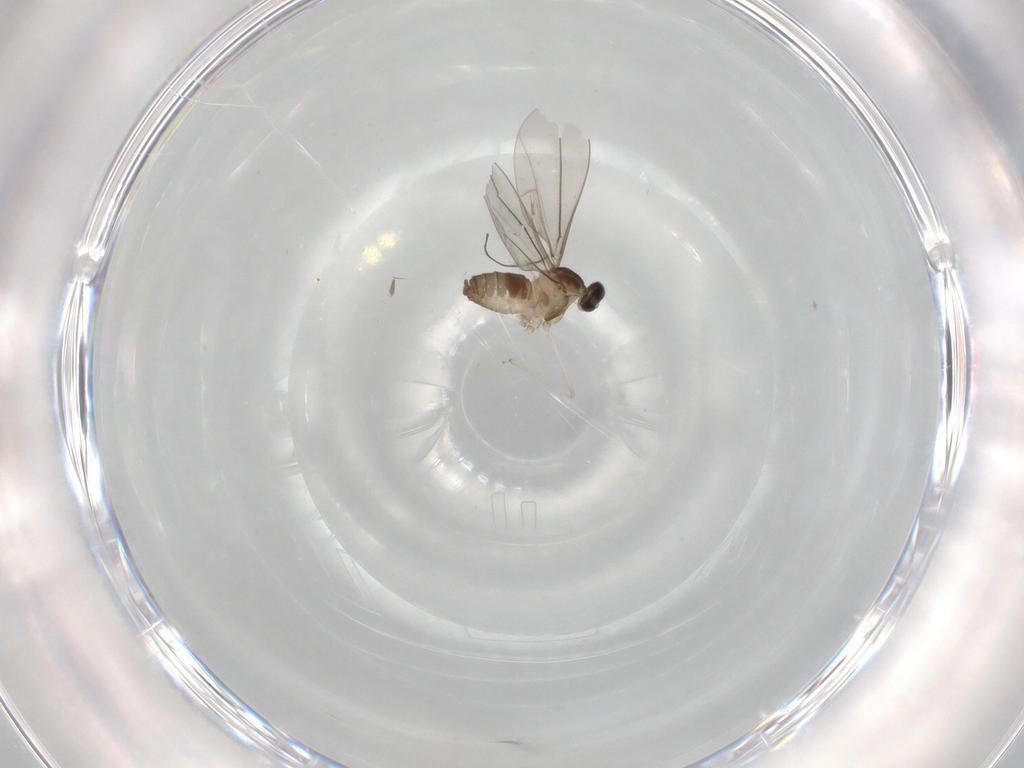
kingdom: Animalia
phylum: Arthropoda
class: Insecta
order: Diptera
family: Cecidomyiidae
